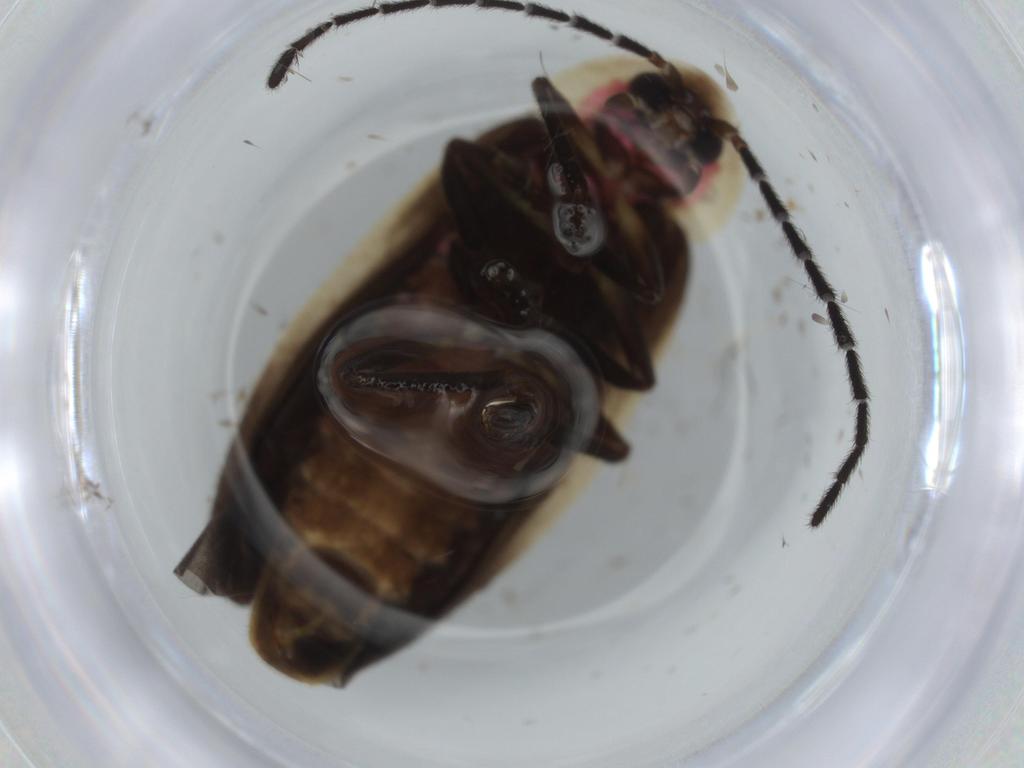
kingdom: Animalia
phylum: Arthropoda
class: Insecta
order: Coleoptera
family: Lampyridae
